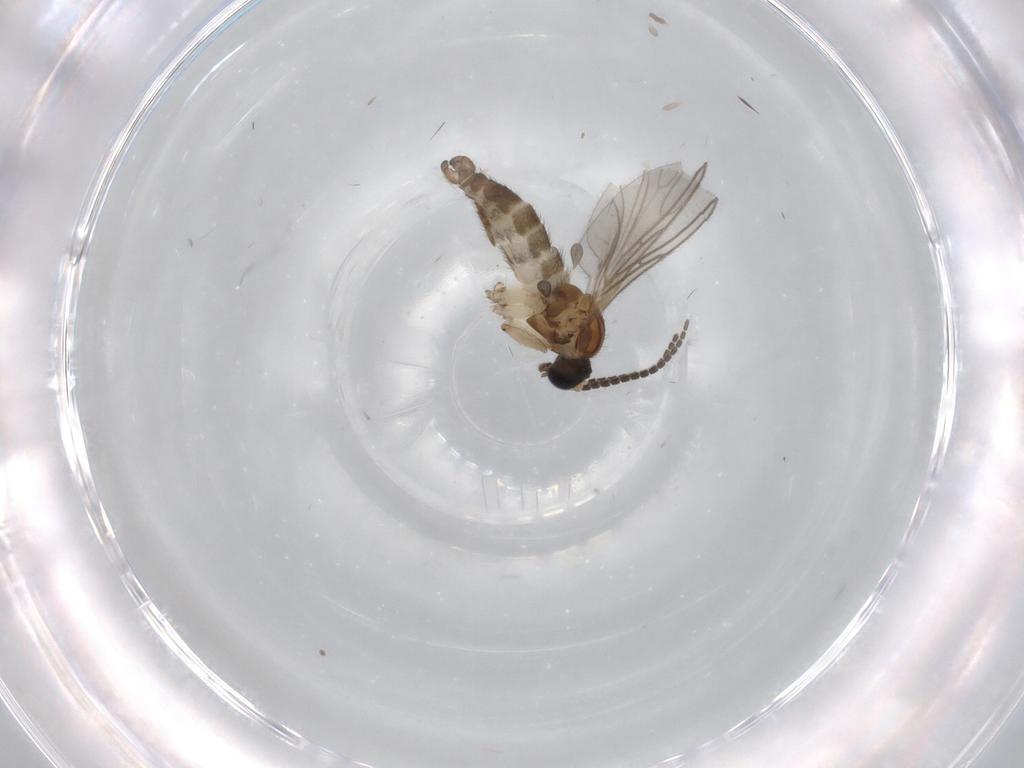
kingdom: Animalia
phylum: Arthropoda
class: Insecta
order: Diptera
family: Sciaridae
